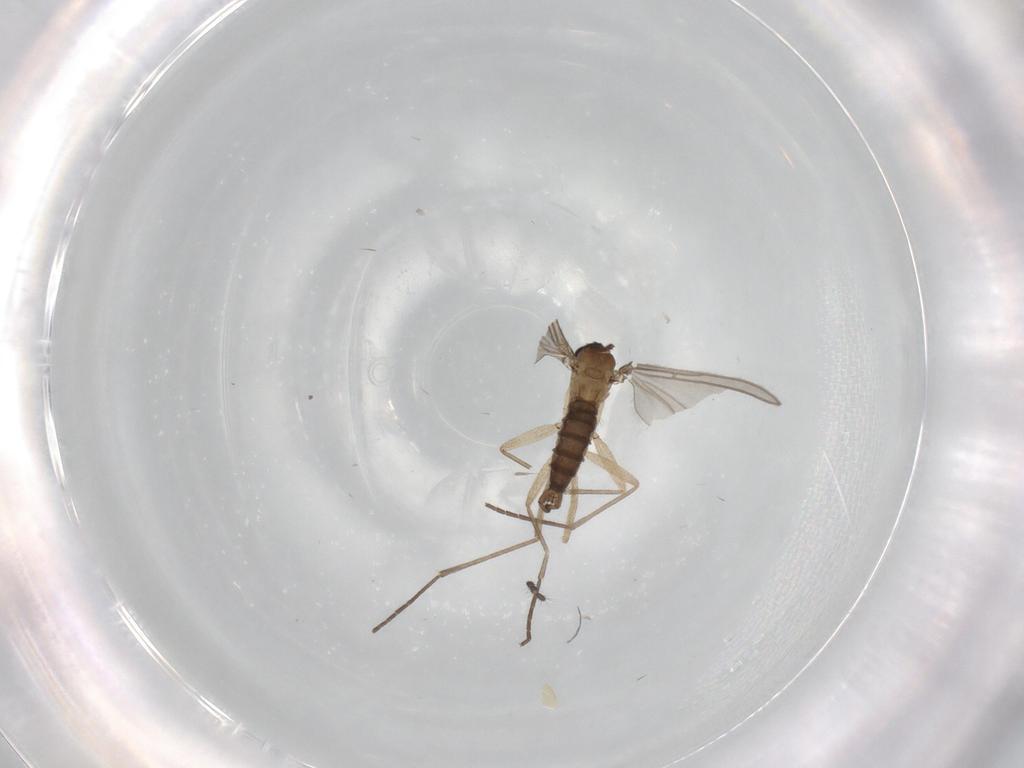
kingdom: Animalia
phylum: Arthropoda
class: Insecta
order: Diptera
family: Sciaridae
